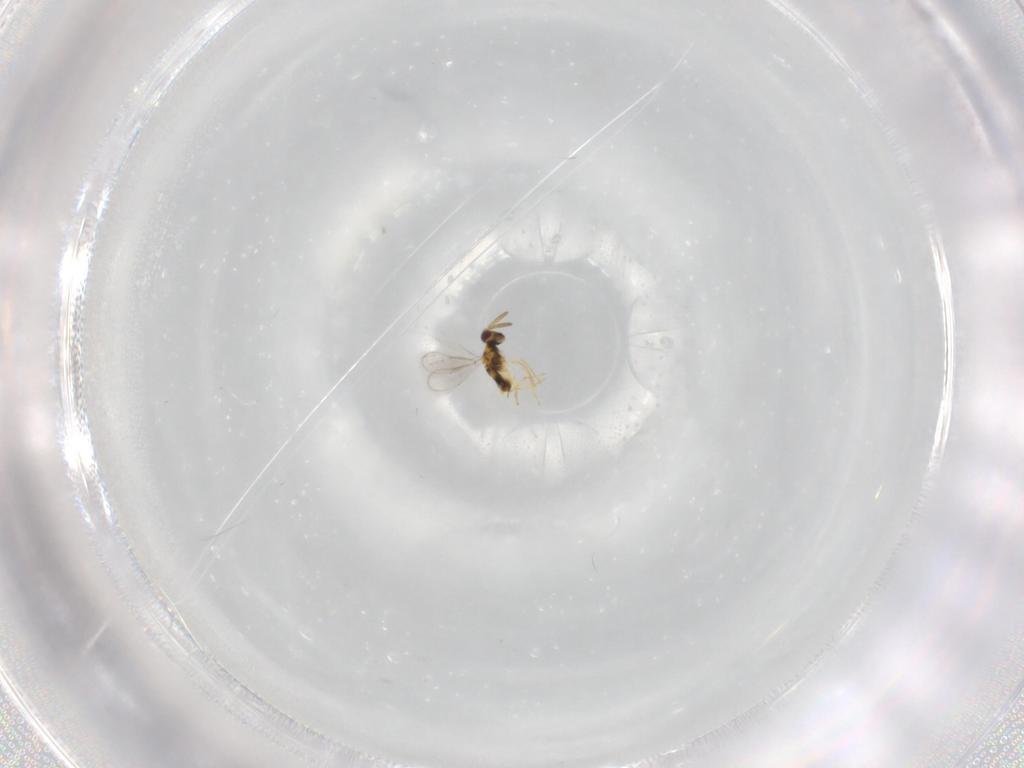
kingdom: Animalia
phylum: Arthropoda
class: Insecta
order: Hymenoptera
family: Aphelinidae
